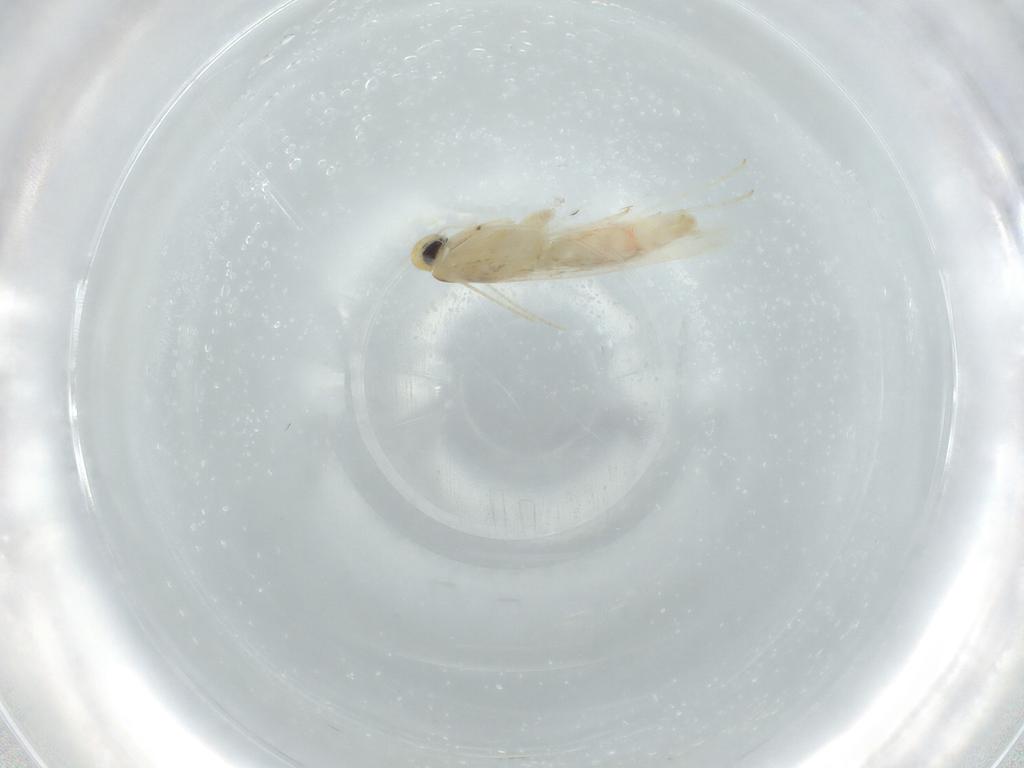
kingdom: Animalia
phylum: Arthropoda
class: Insecta
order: Lepidoptera
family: Gracillariidae
